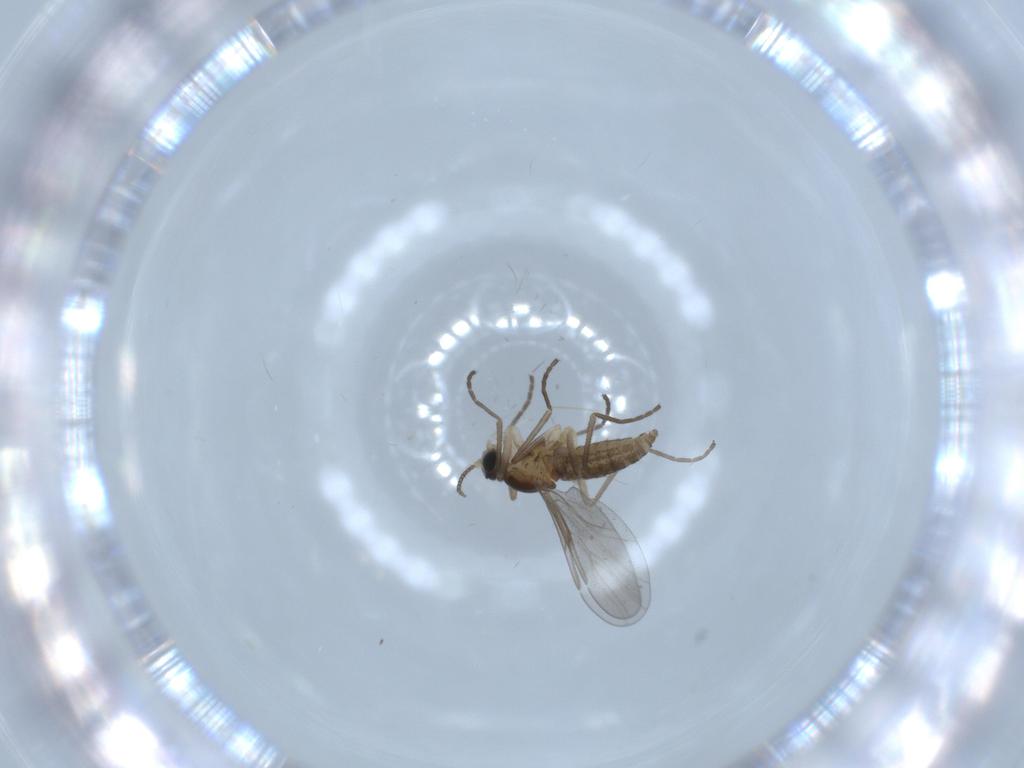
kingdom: Animalia
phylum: Arthropoda
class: Insecta
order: Diptera
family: Cecidomyiidae
